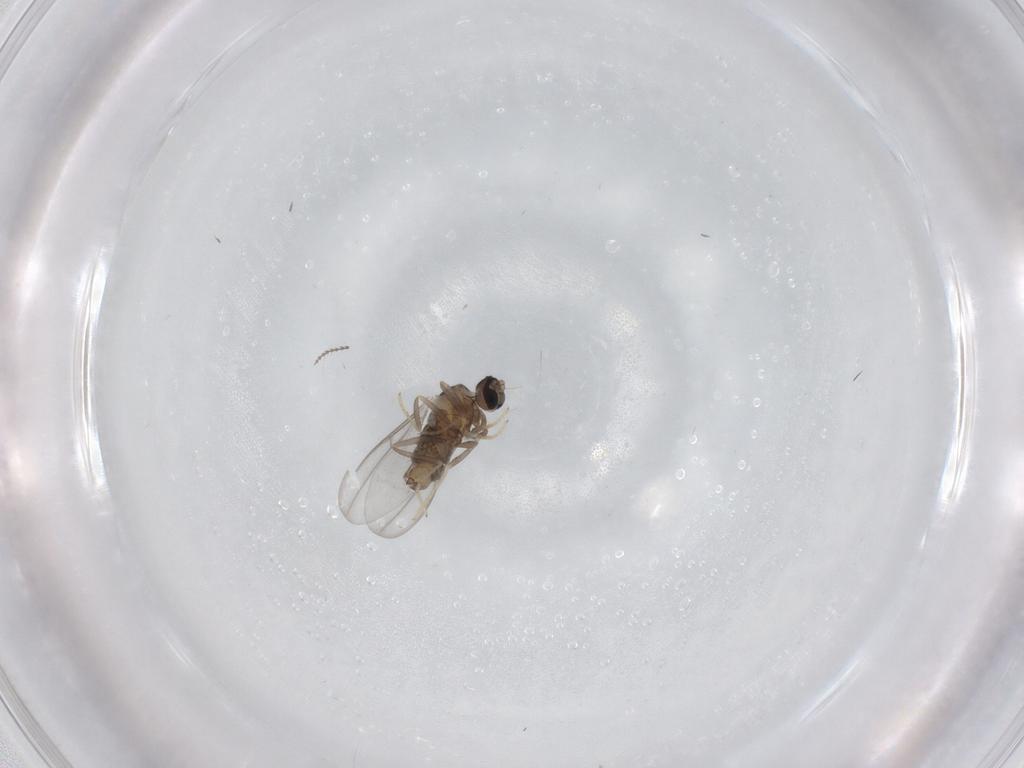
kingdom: Animalia
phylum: Arthropoda
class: Insecta
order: Diptera
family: Cecidomyiidae
